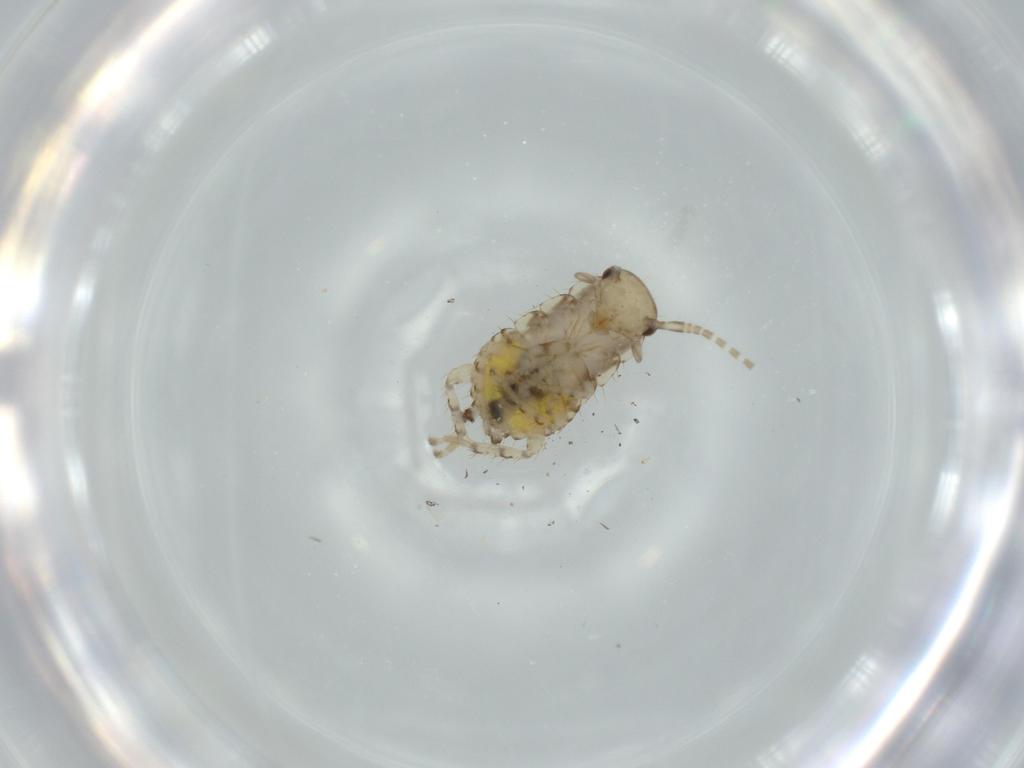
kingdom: Animalia
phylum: Arthropoda
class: Insecta
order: Blattodea
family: Ectobiidae
